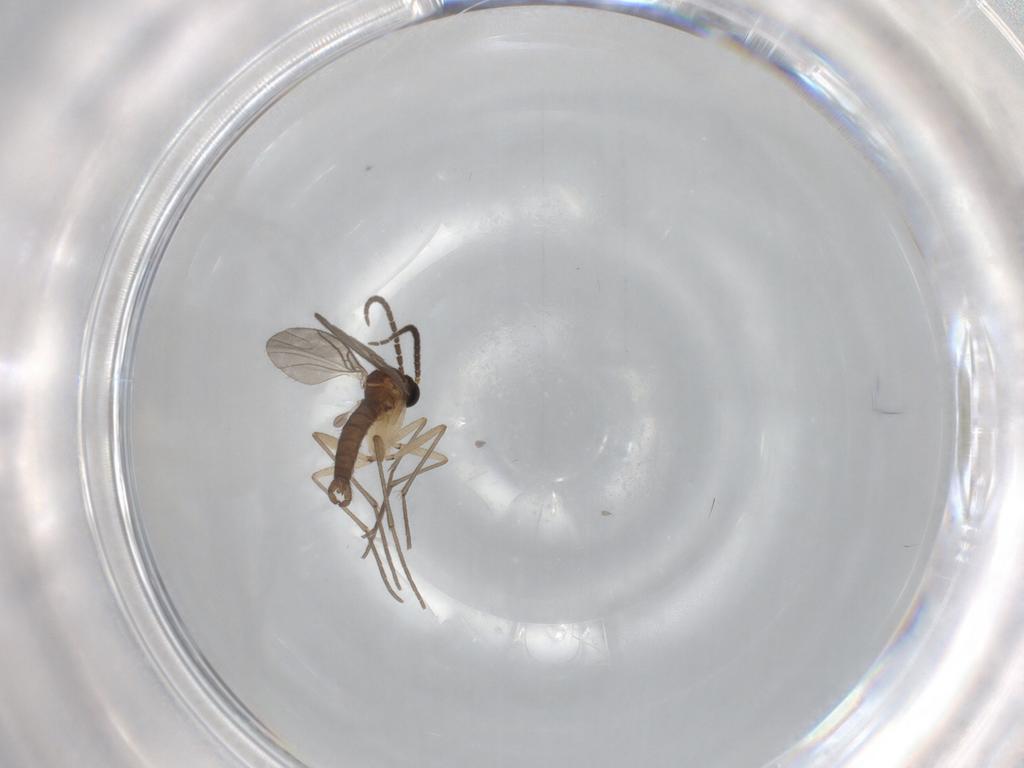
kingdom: Animalia
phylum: Arthropoda
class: Insecta
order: Diptera
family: Sciaridae
